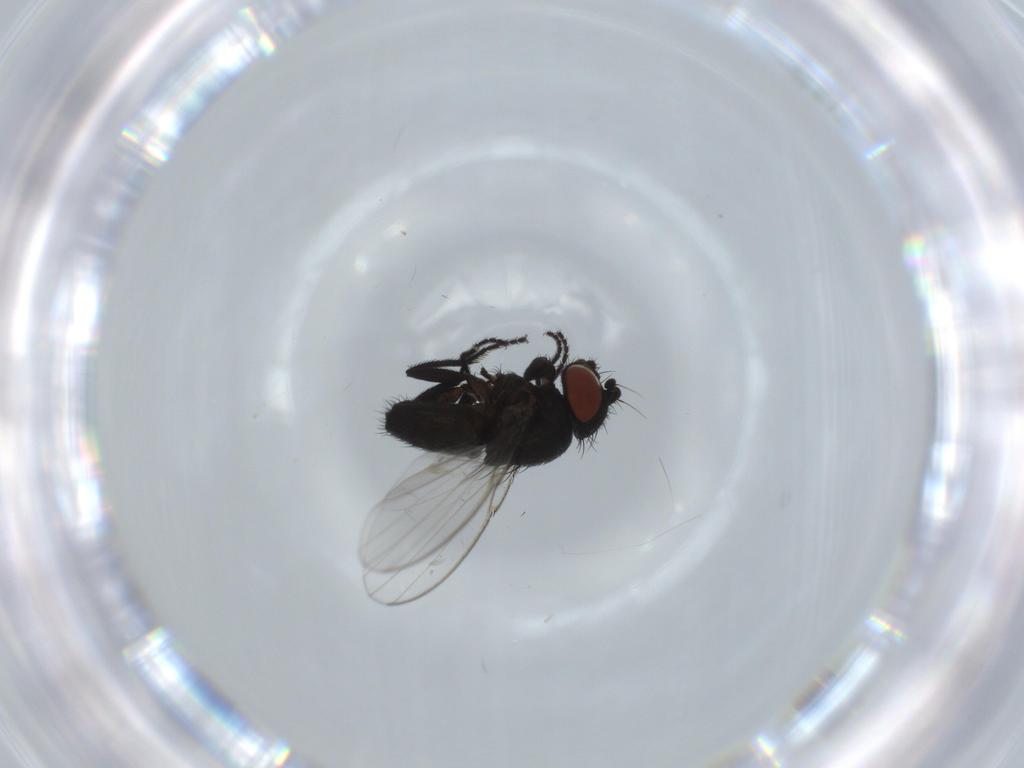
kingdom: Animalia
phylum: Arthropoda
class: Insecta
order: Diptera
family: Milichiidae
